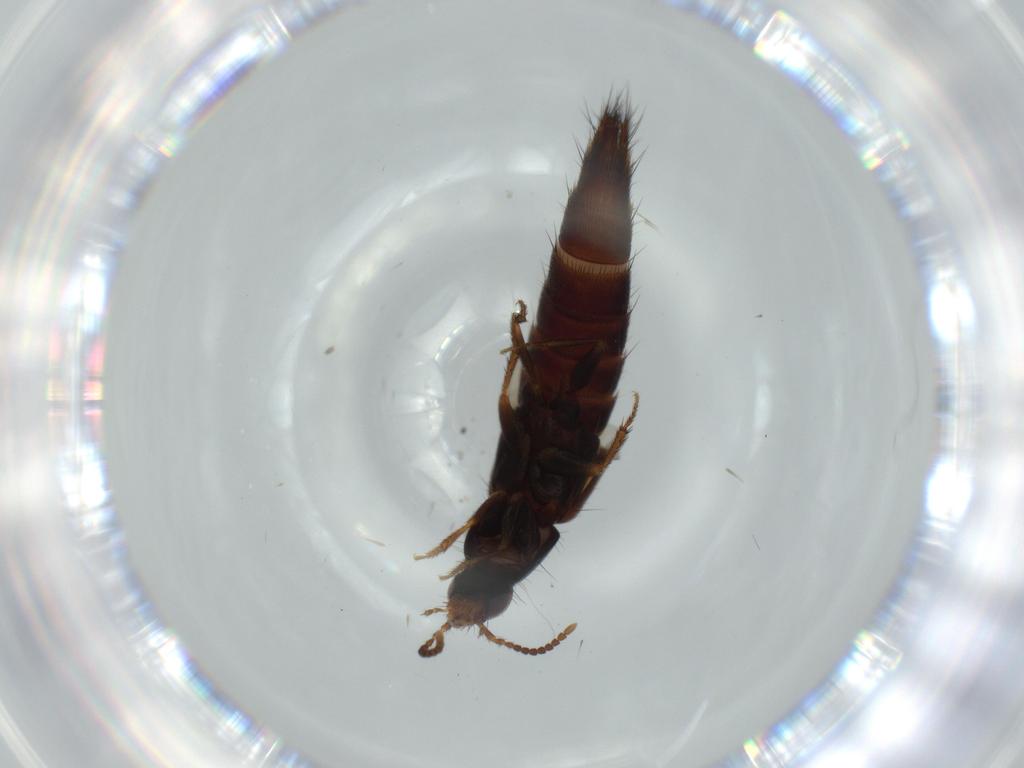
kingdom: Animalia
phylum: Arthropoda
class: Insecta
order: Coleoptera
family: Staphylinidae
